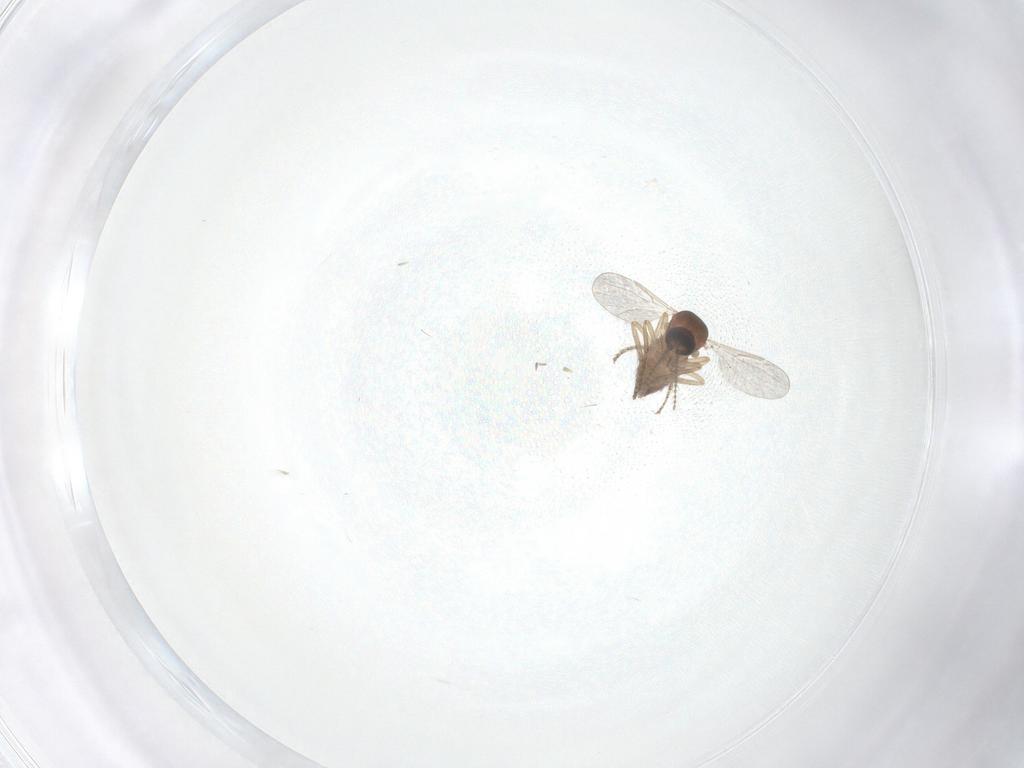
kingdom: Animalia
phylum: Arthropoda
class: Insecta
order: Diptera
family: Ceratopogonidae
